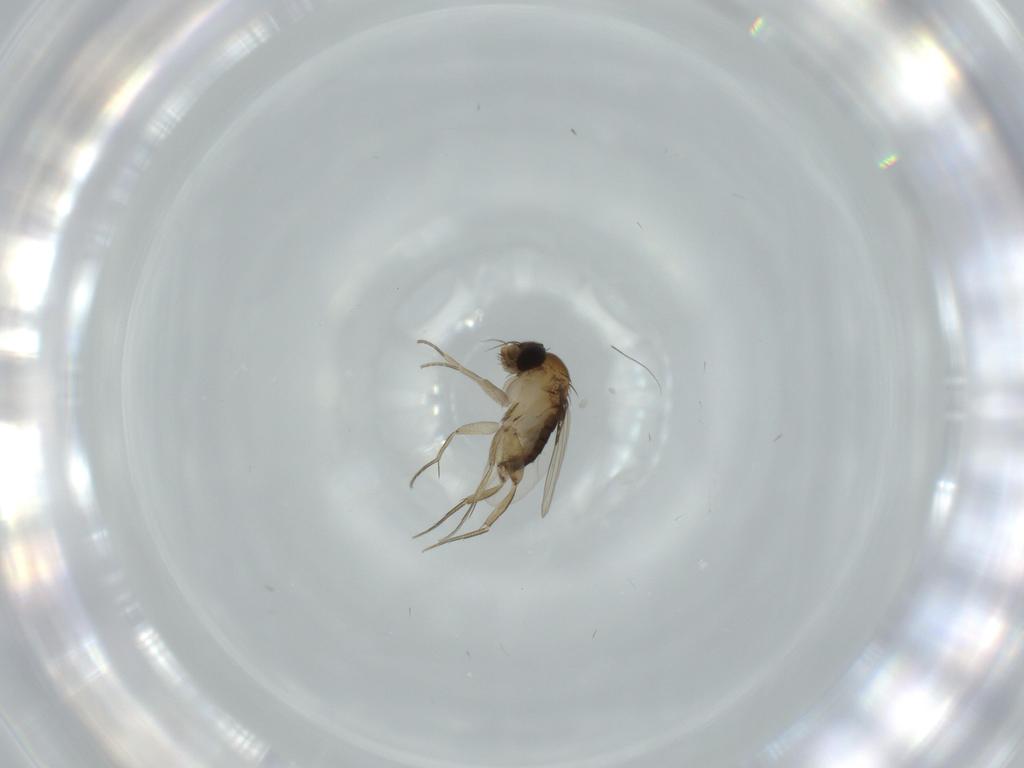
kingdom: Animalia
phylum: Arthropoda
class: Insecta
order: Diptera
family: Phoridae
